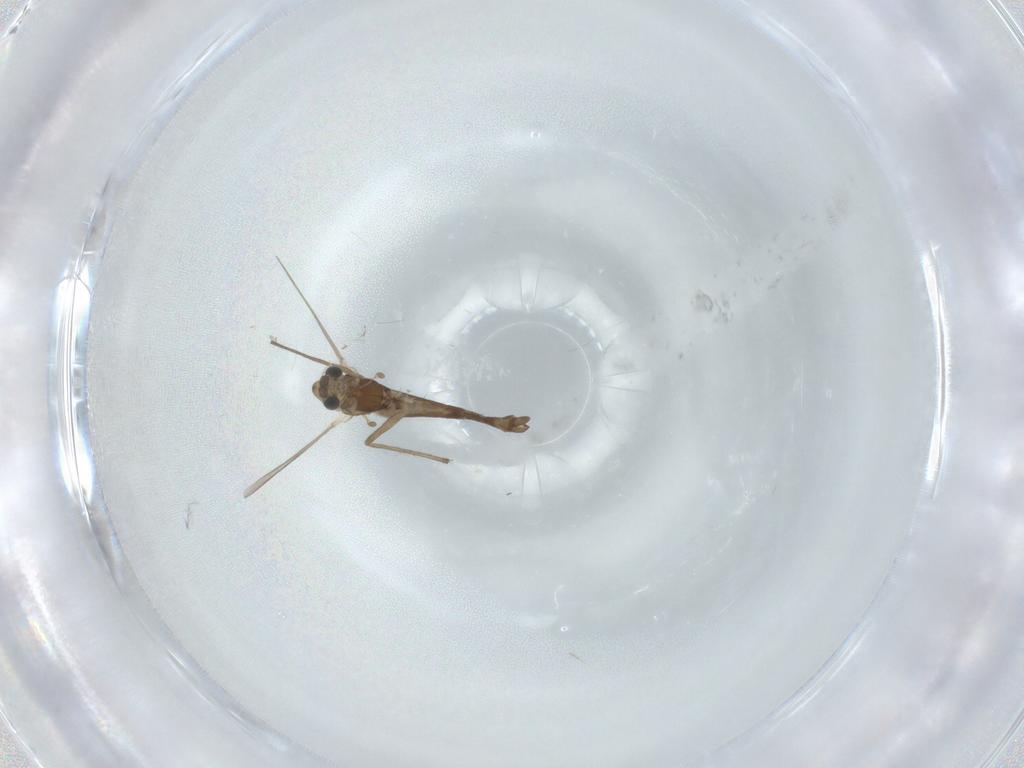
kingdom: Animalia
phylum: Arthropoda
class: Insecta
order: Diptera
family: Chironomidae
